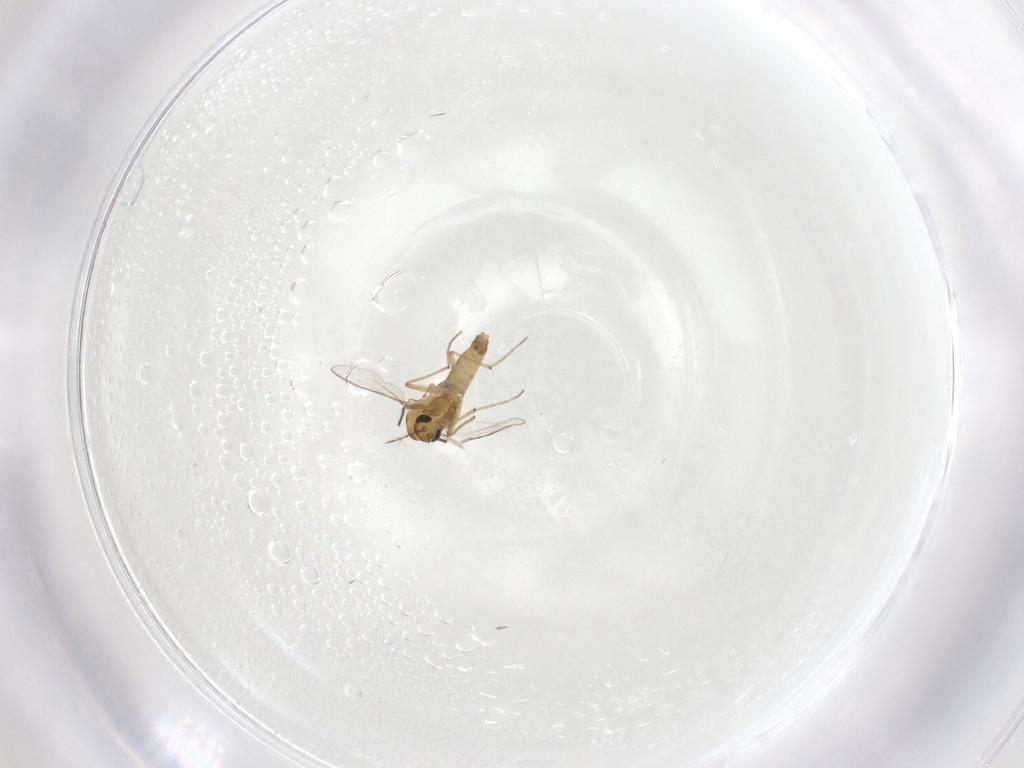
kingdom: Animalia
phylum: Arthropoda
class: Insecta
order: Diptera
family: Chironomidae
